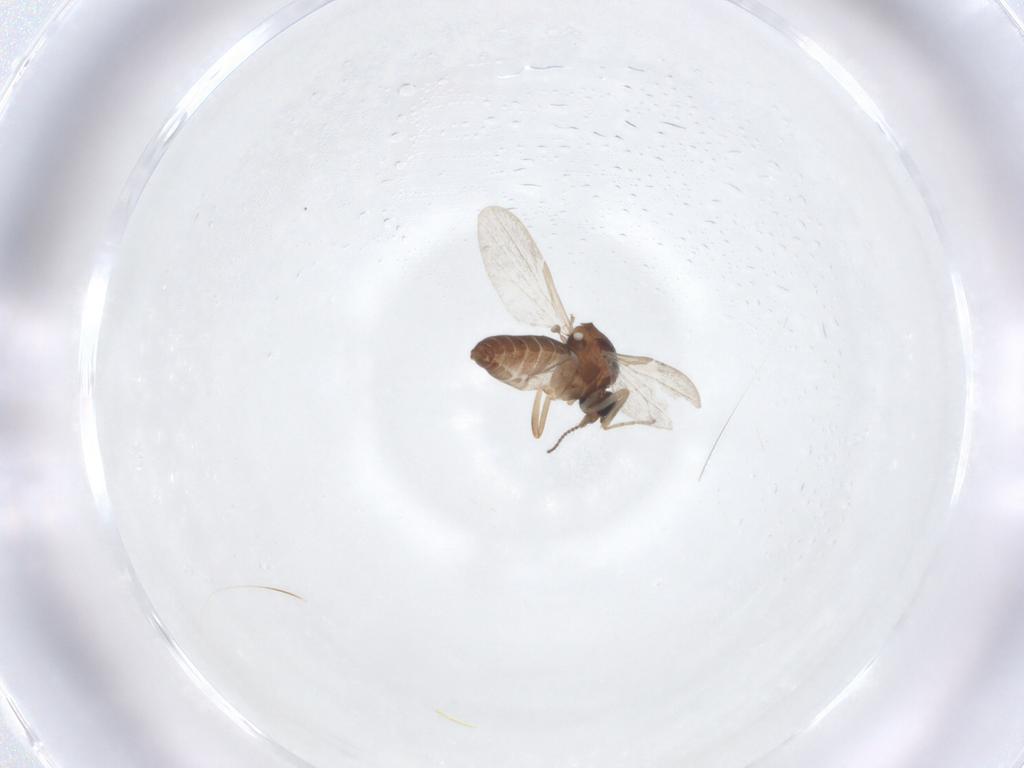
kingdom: Animalia
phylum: Arthropoda
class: Insecta
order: Diptera
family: Ceratopogonidae
